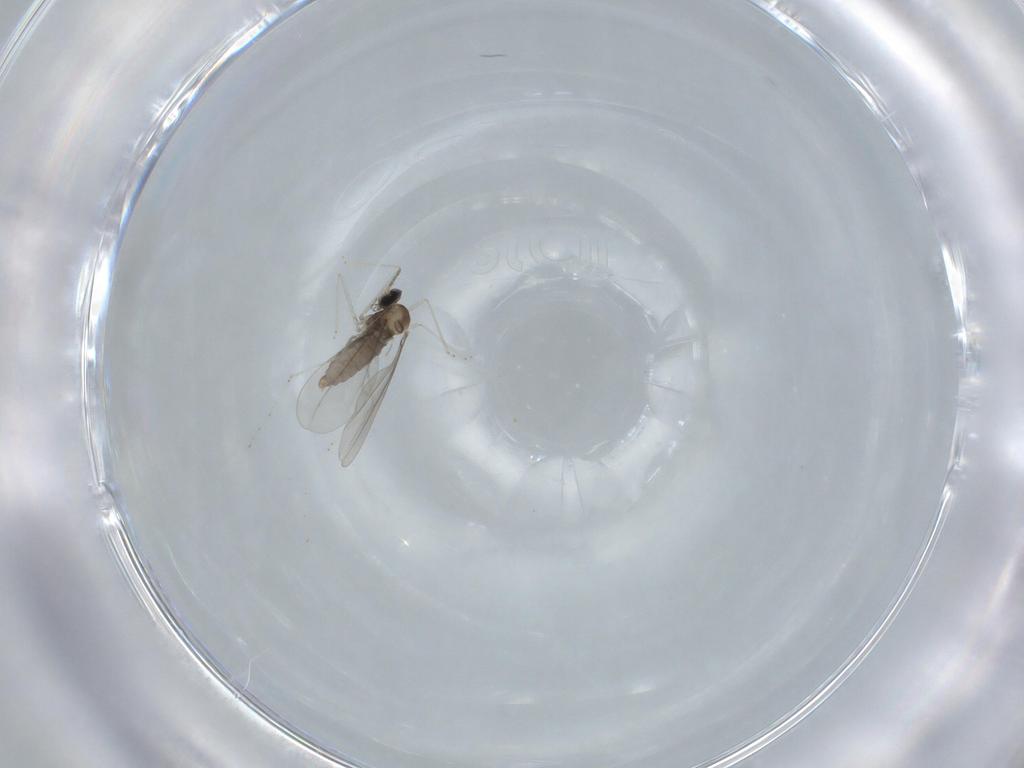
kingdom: Animalia
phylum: Arthropoda
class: Insecta
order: Diptera
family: Cecidomyiidae
